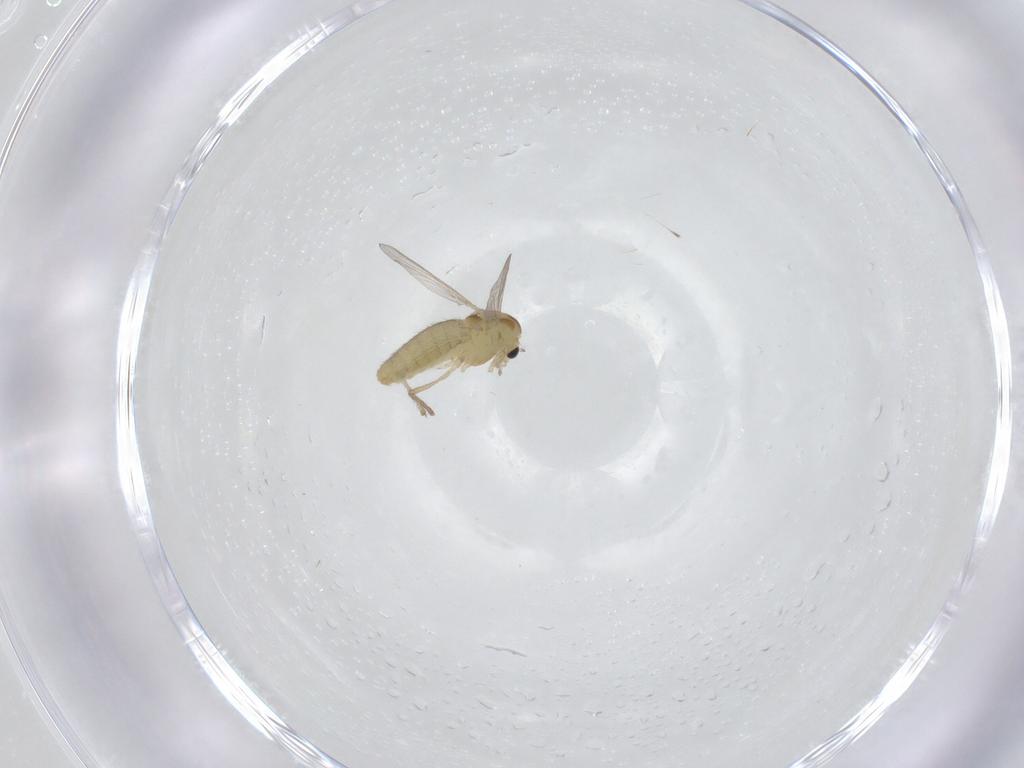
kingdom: Animalia
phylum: Arthropoda
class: Insecta
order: Diptera
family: Chironomidae
